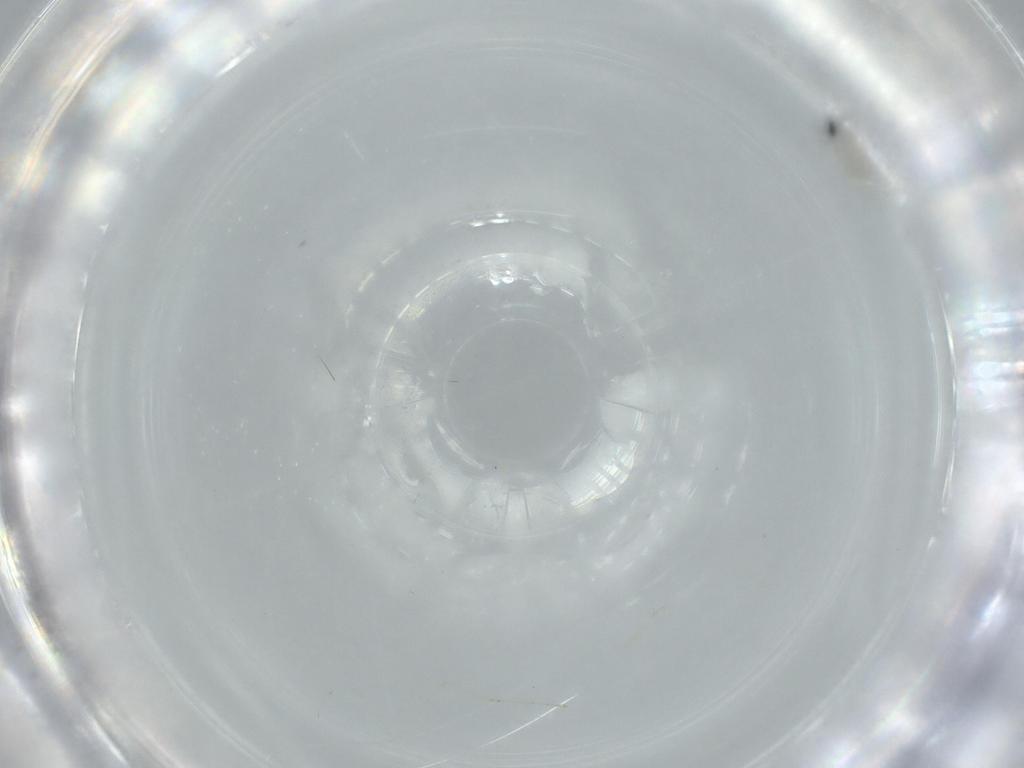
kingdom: Animalia
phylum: Arthropoda
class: Insecta
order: Diptera
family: Cecidomyiidae
